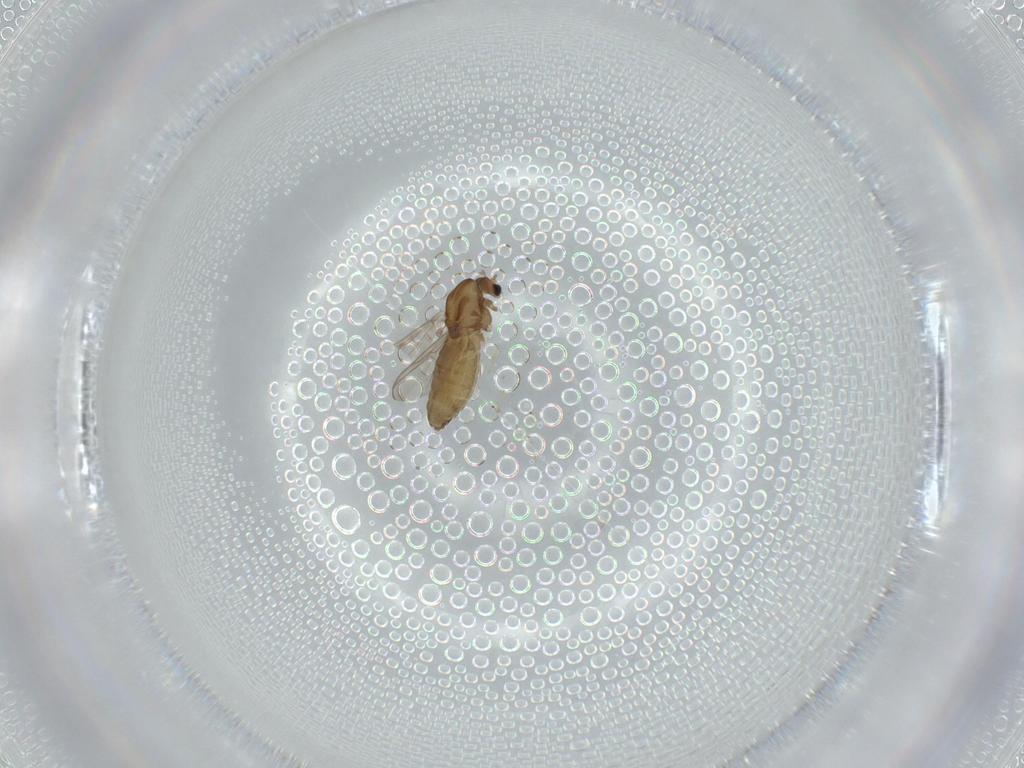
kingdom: Animalia
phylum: Arthropoda
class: Insecta
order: Diptera
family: Chironomidae
